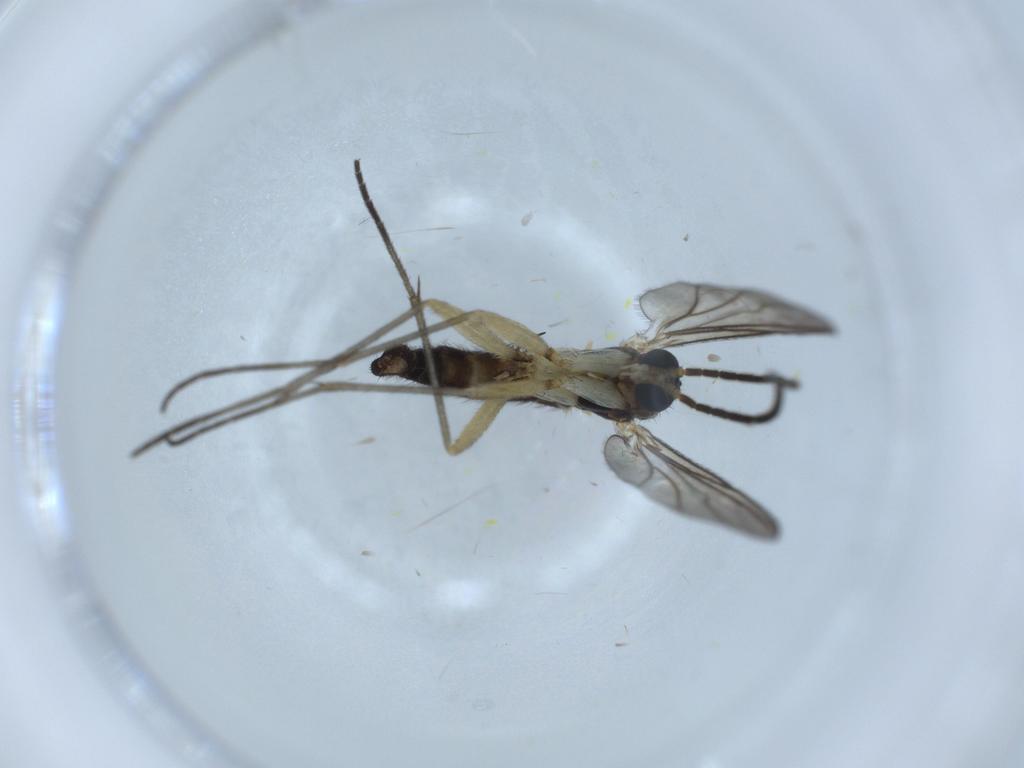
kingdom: Animalia
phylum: Arthropoda
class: Insecta
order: Diptera
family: Sciaridae
